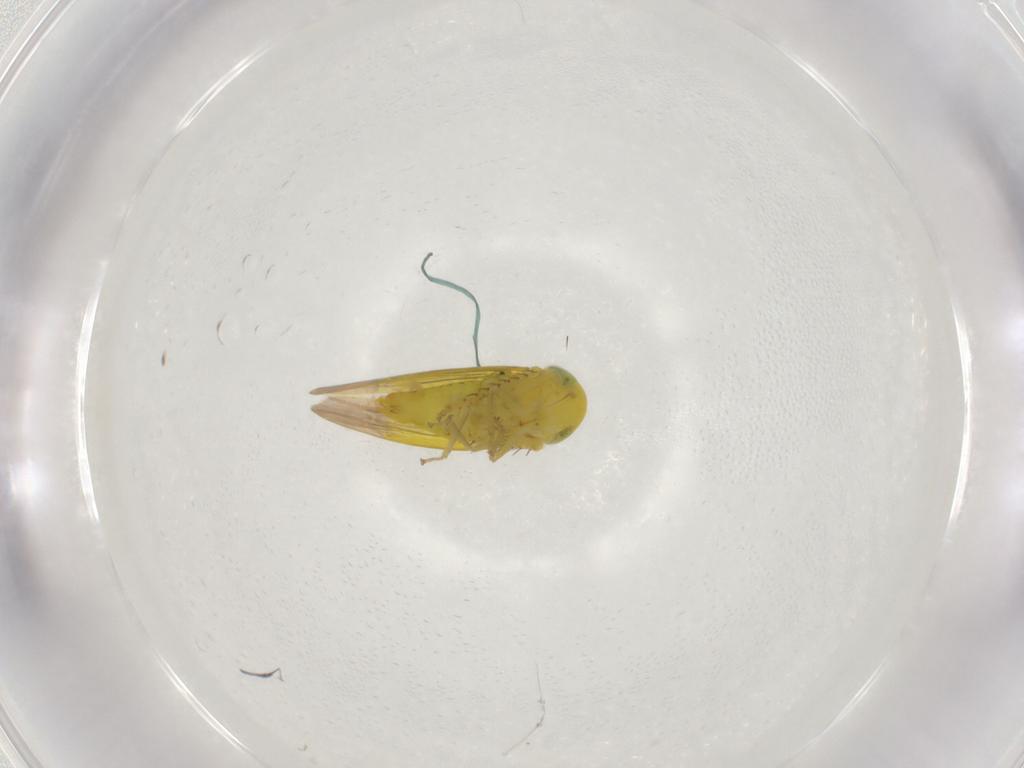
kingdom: Animalia
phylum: Arthropoda
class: Insecta
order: Hemiptera
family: Cicadellidae
